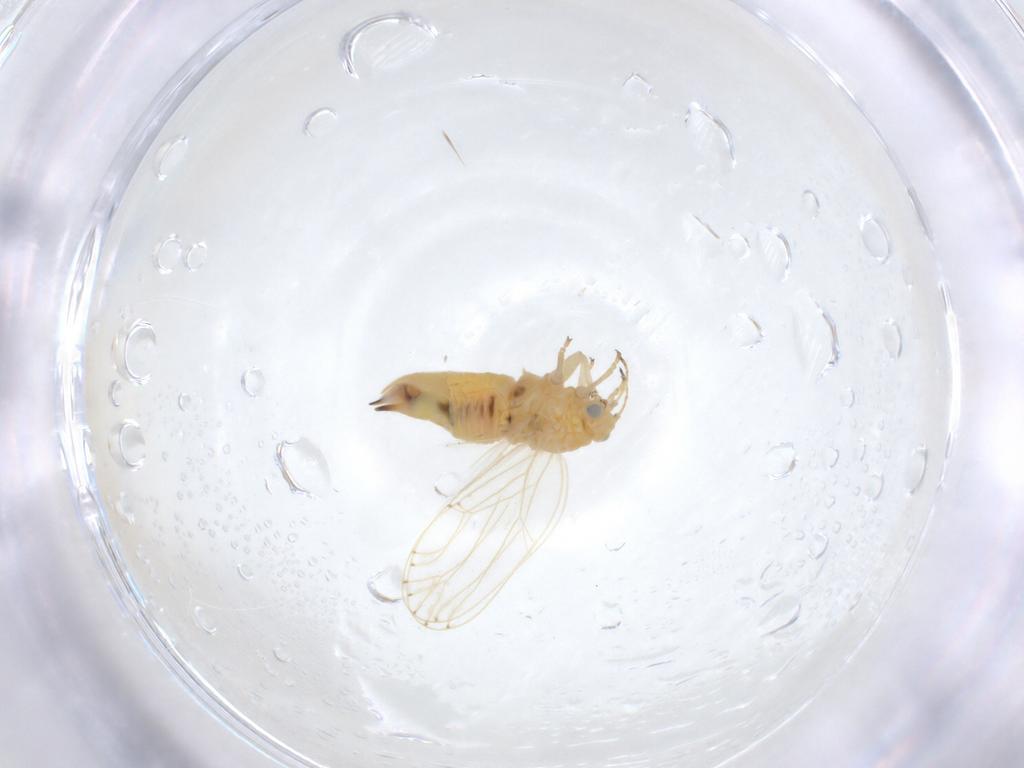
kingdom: Animalia
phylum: Arthropoda
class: Insecta
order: Hemiptera
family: Aphalaridae
